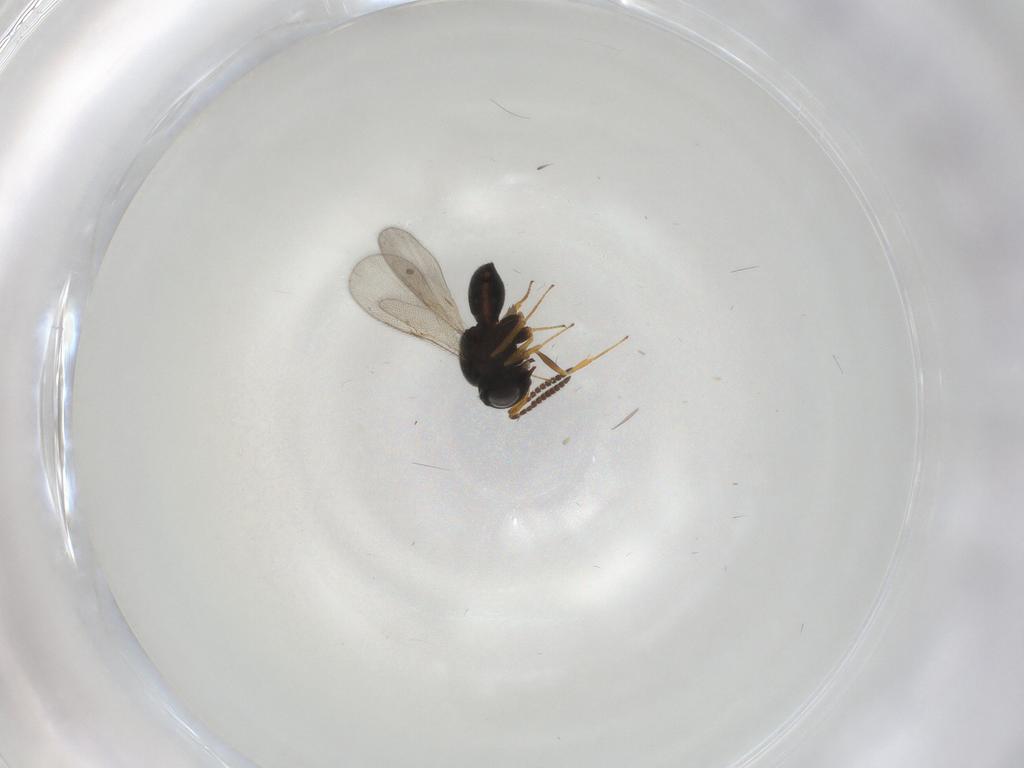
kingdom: Animalia
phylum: Arthropoda
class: Insecta
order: Hymenoptera
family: Scelionidae
